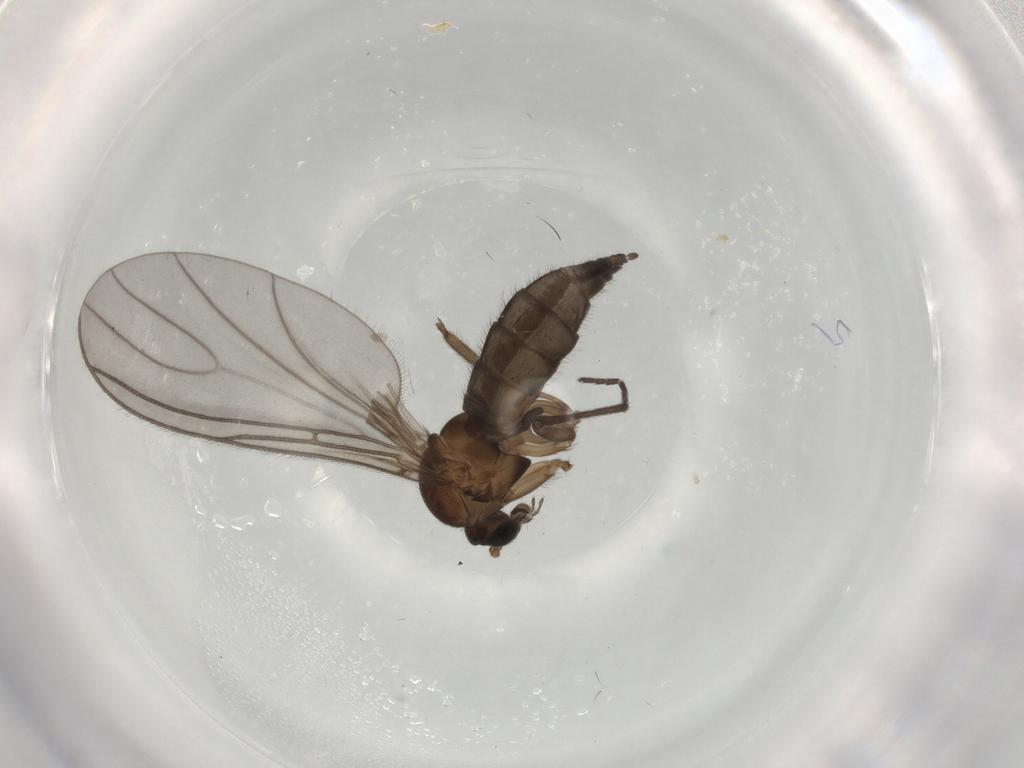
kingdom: Animalia
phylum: Arthropoda
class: Insecta
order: Diptera
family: Sciaridae
